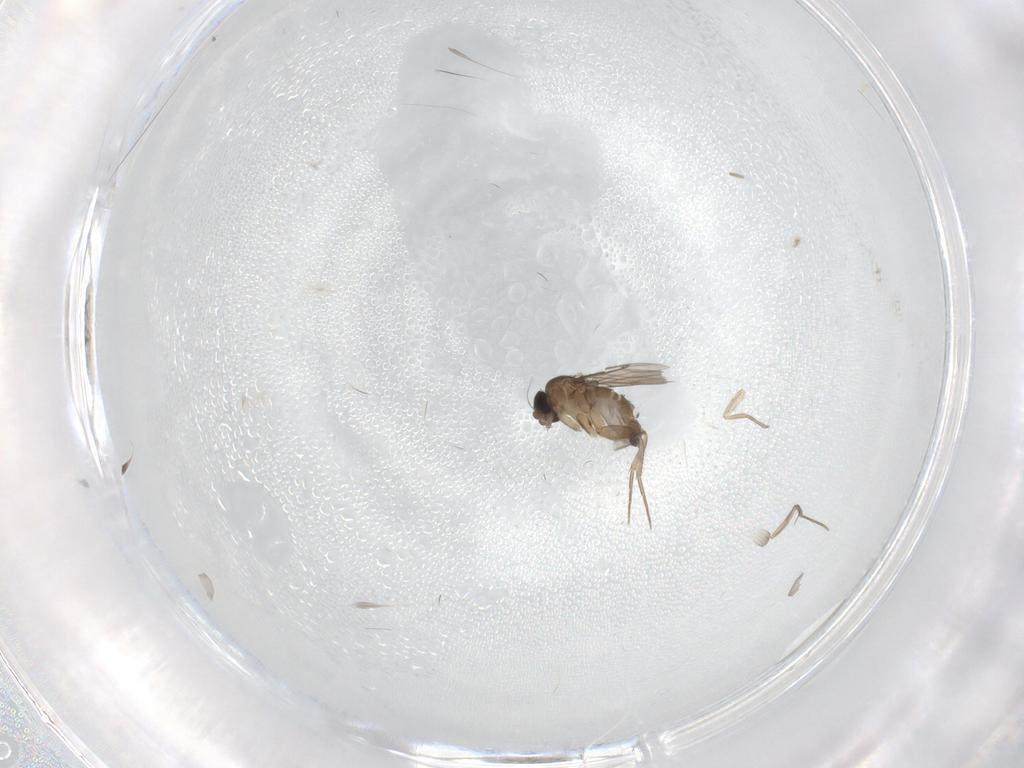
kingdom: Animalia
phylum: Arthropoda
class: Insecta
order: Diptera
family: Phoridae
